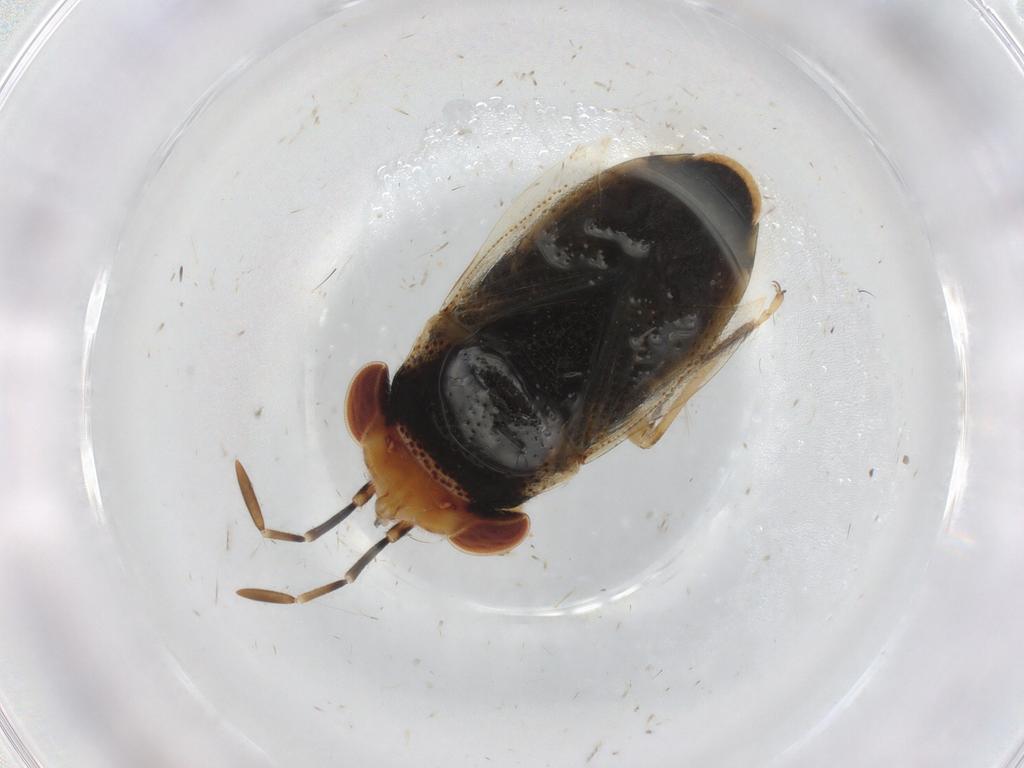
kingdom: Animalia
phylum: Arthropoda
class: Insecta
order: Hemiptera
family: Geocoridae
